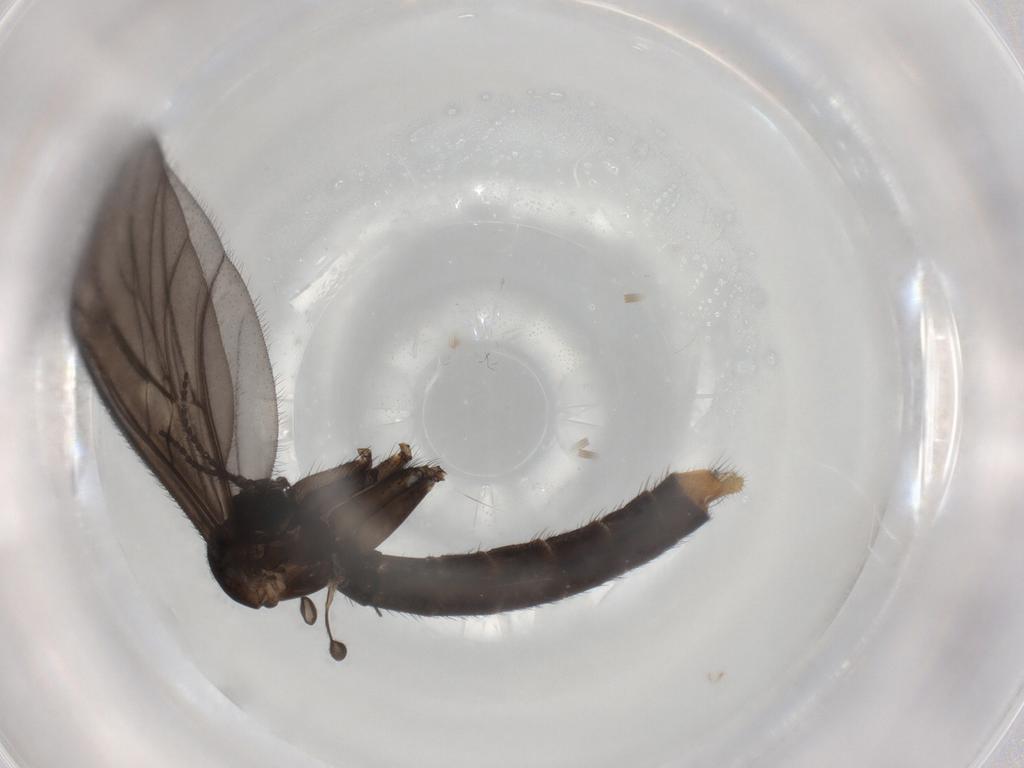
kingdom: Animalia
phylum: Arthropoda
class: Insecta
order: Diptera
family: Ditomyiidae
